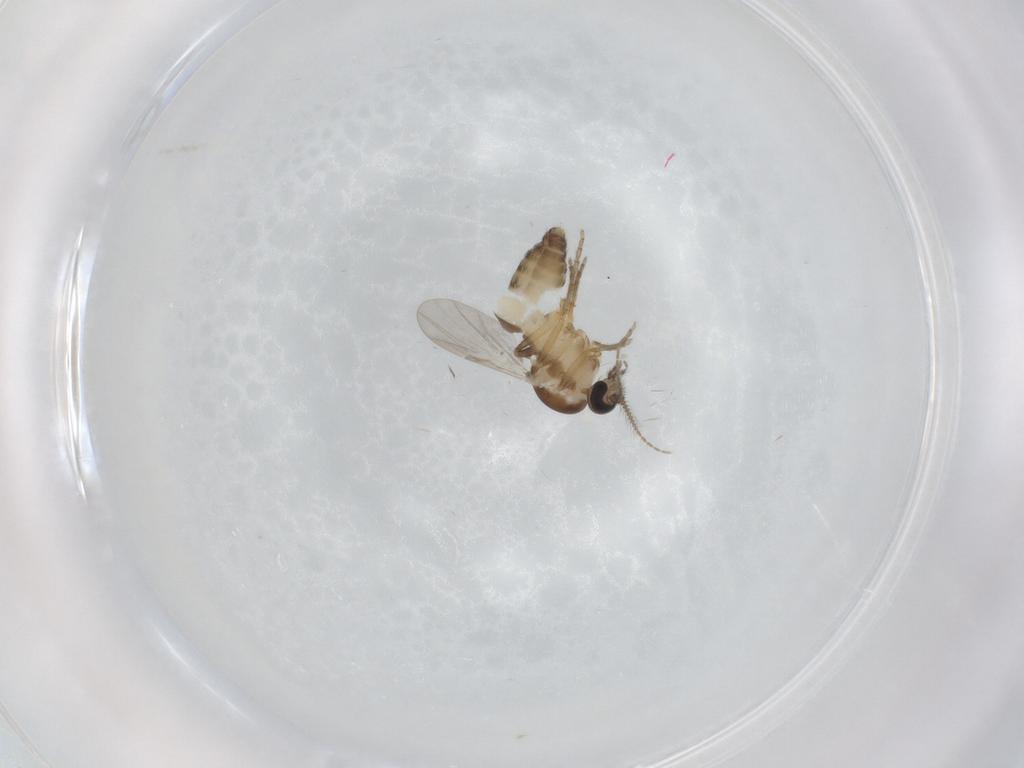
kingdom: Animalia
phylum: Arthropoda
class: Insecta
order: Diptera
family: Ceratopogonidae
